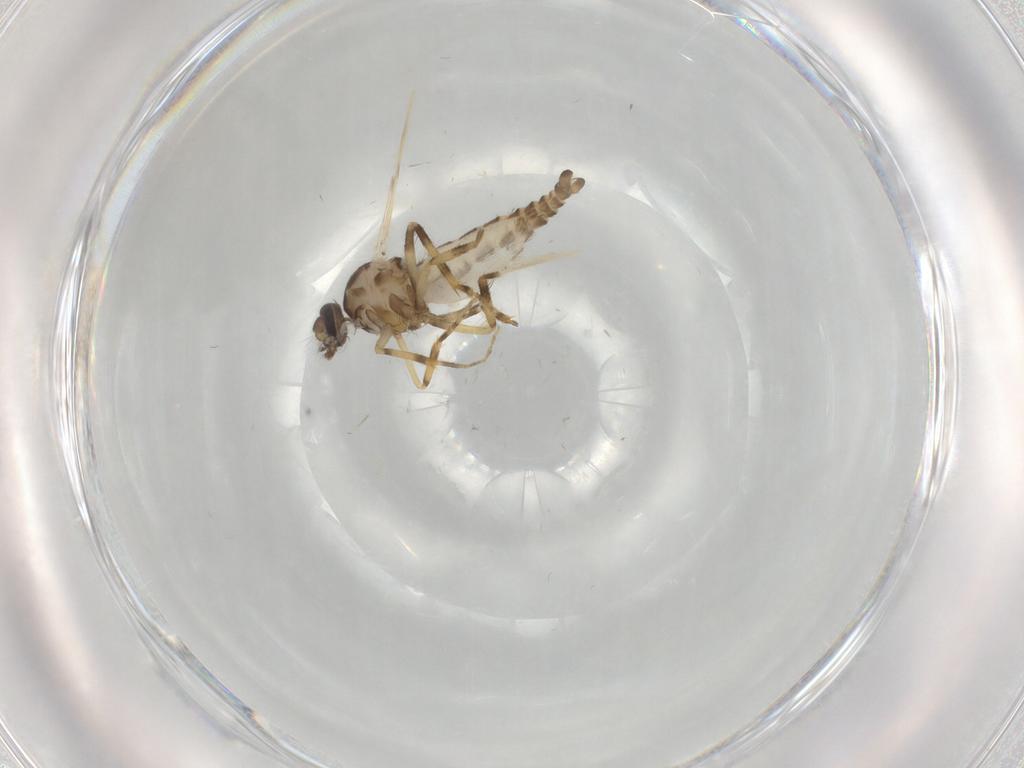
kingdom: Animalia
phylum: Arthropoda
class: Insecta
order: Diptera
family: Ceratopogonidae
